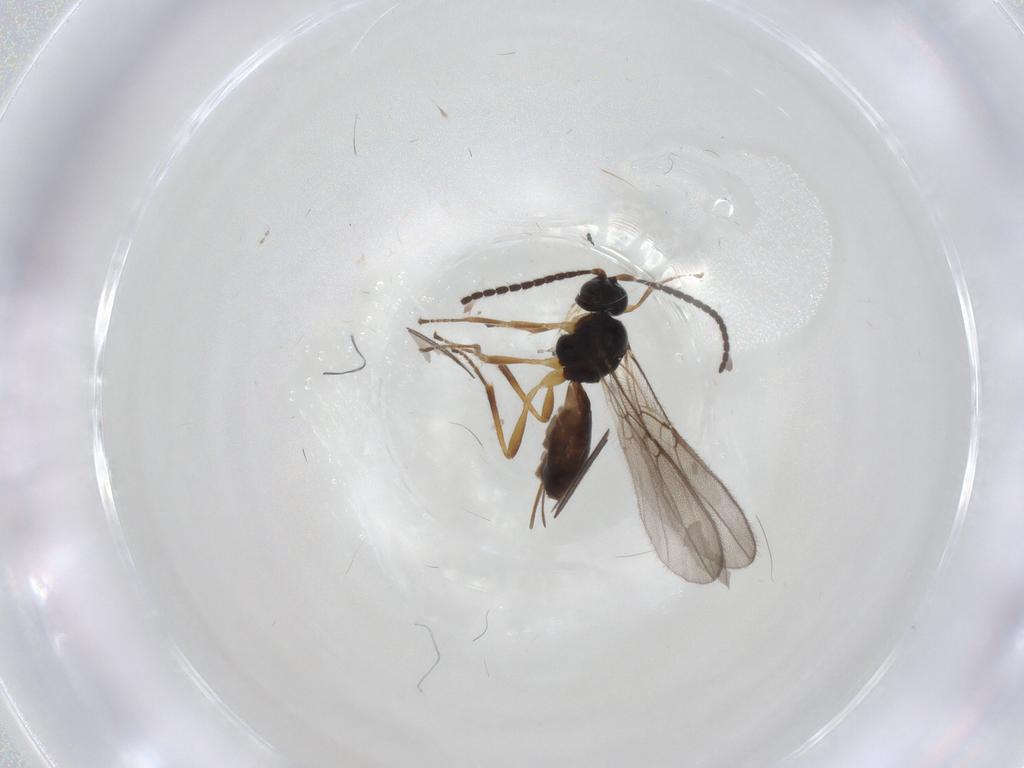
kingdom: Animalia
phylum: Arthropoda
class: Insecta
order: Hymenoptera
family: Braconidae
